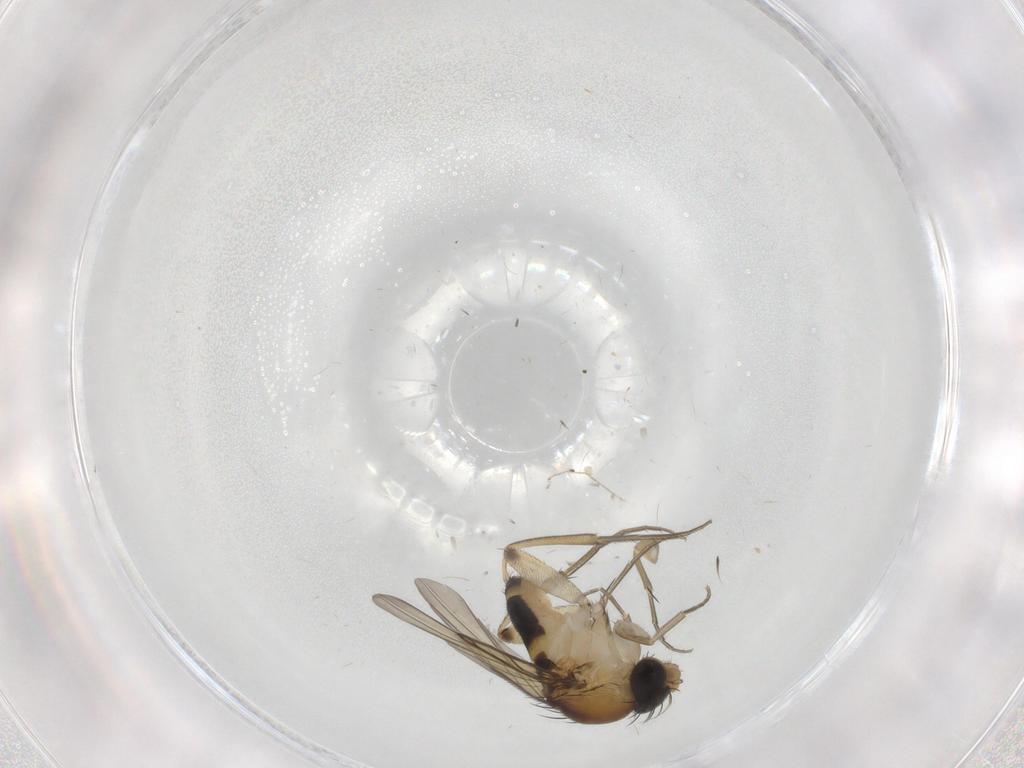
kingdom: Animalia
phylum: Arthropoda
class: Insecta
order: Diptera
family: Phoridae
